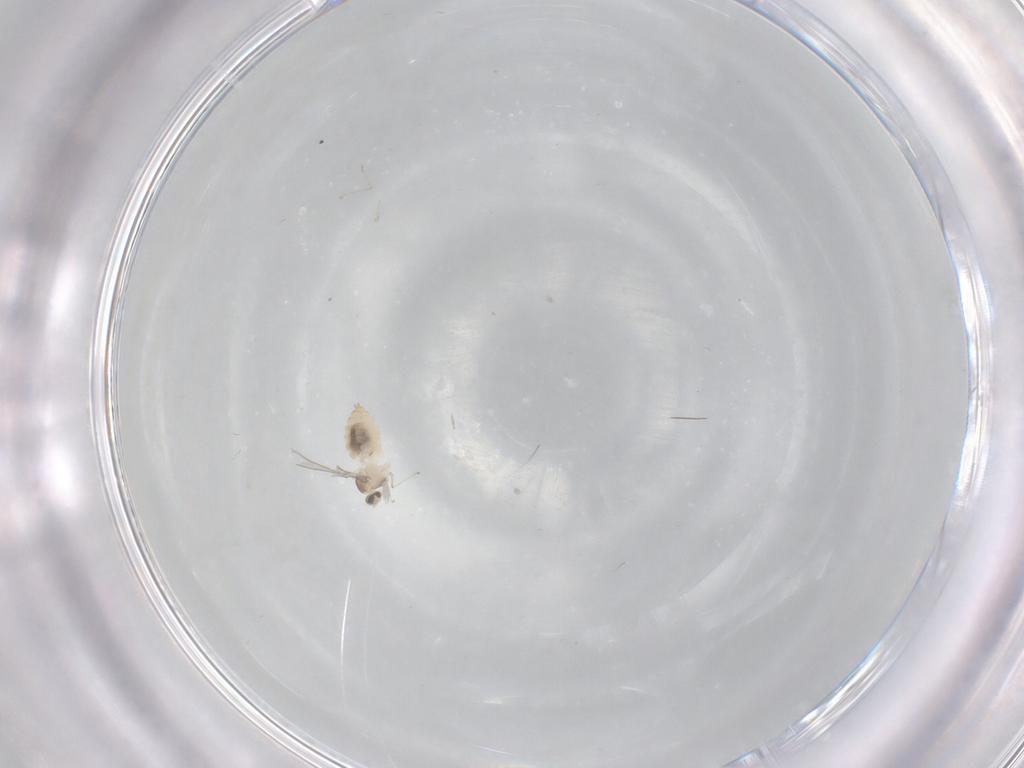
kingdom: Animalia
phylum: Arthropoda
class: Insecta
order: Diptera
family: Cecidomyiidae
